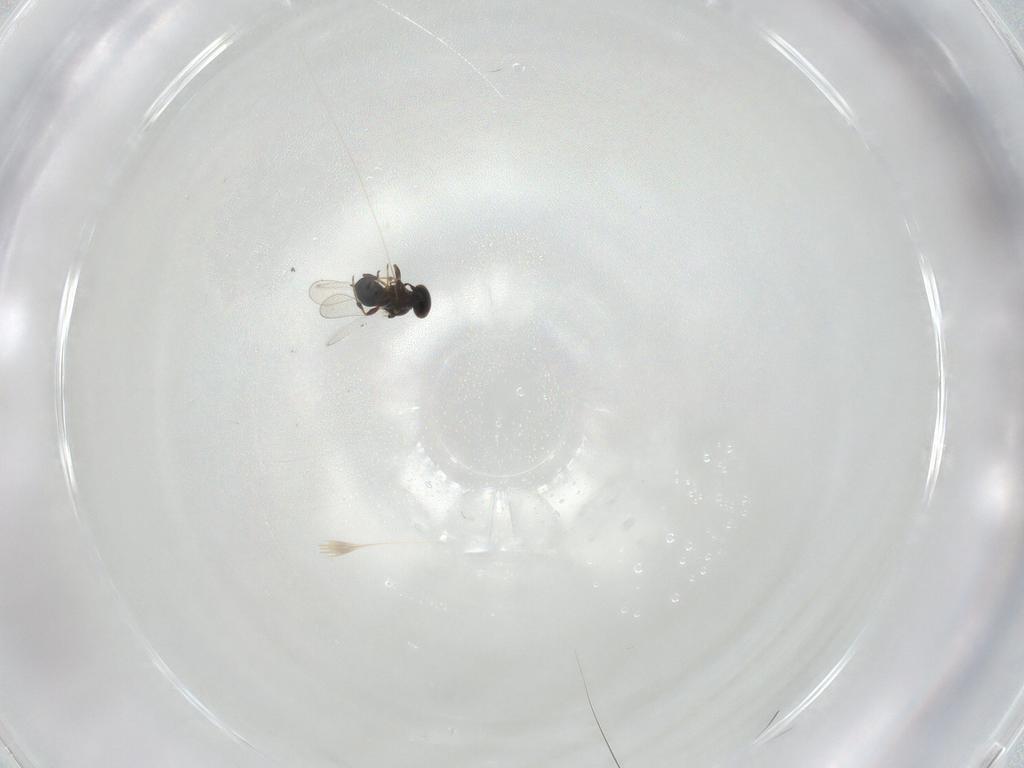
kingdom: Animalia
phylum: Arthropoda
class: Insecta
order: Hymenoptera
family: Platygastridae
